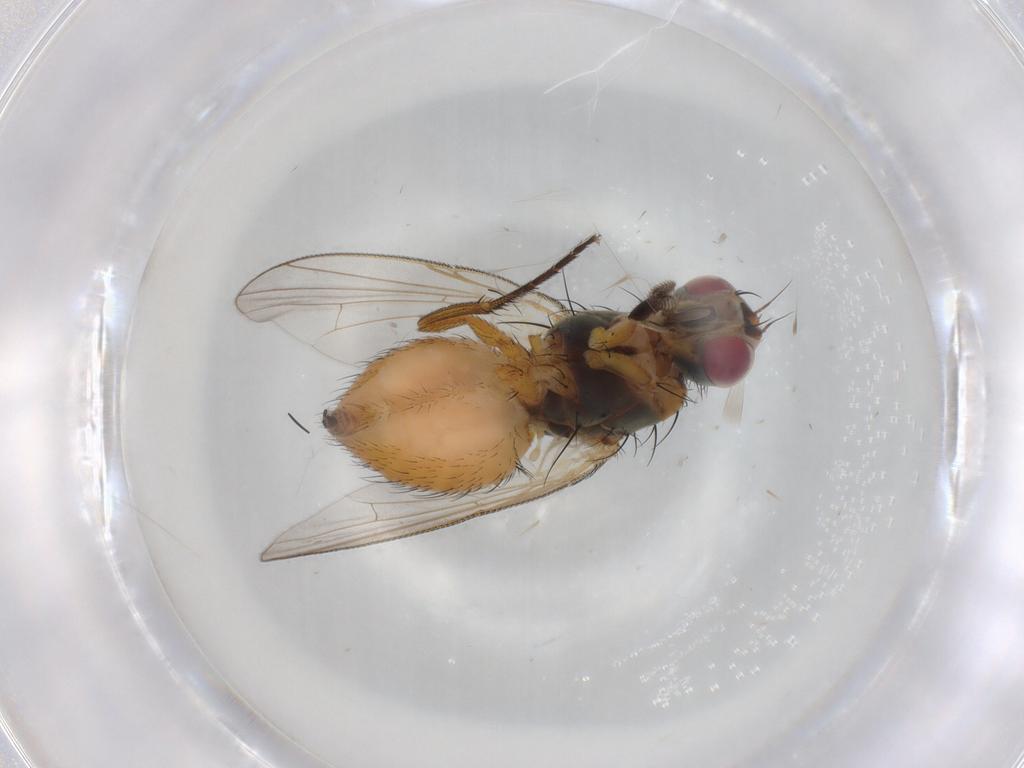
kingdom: Animalia
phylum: Arthropoda
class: Insecta
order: Diptera
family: Muscidae
